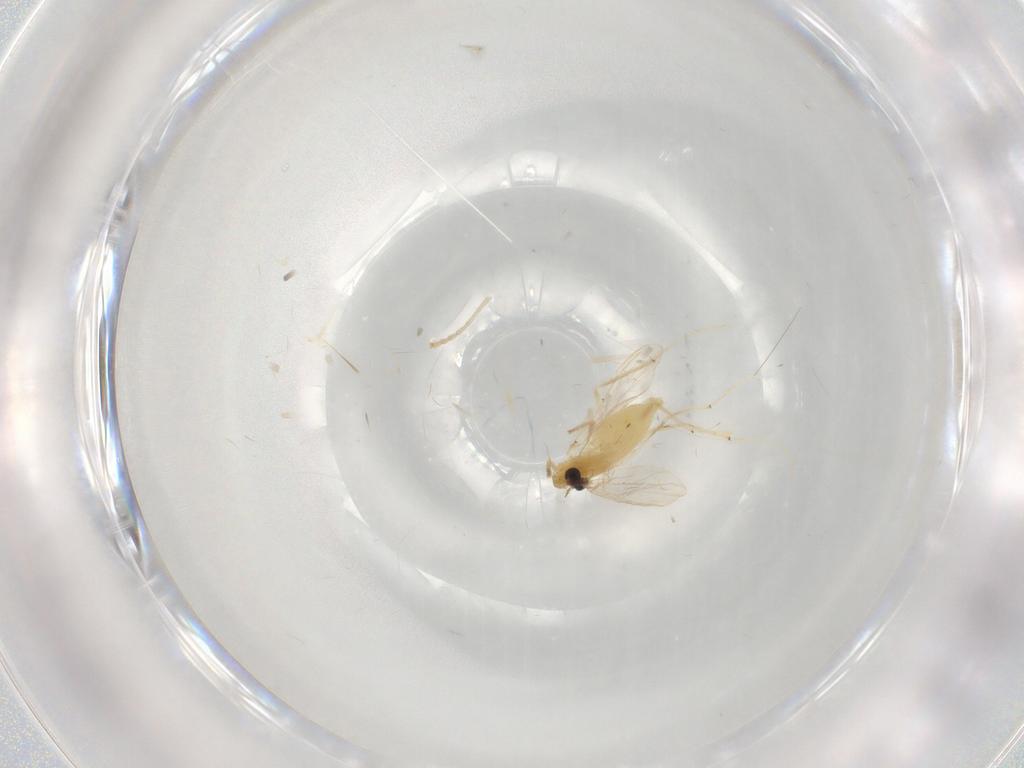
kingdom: Animalia
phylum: Arthropoda
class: Insecta
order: Diptera
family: Chironomidae
